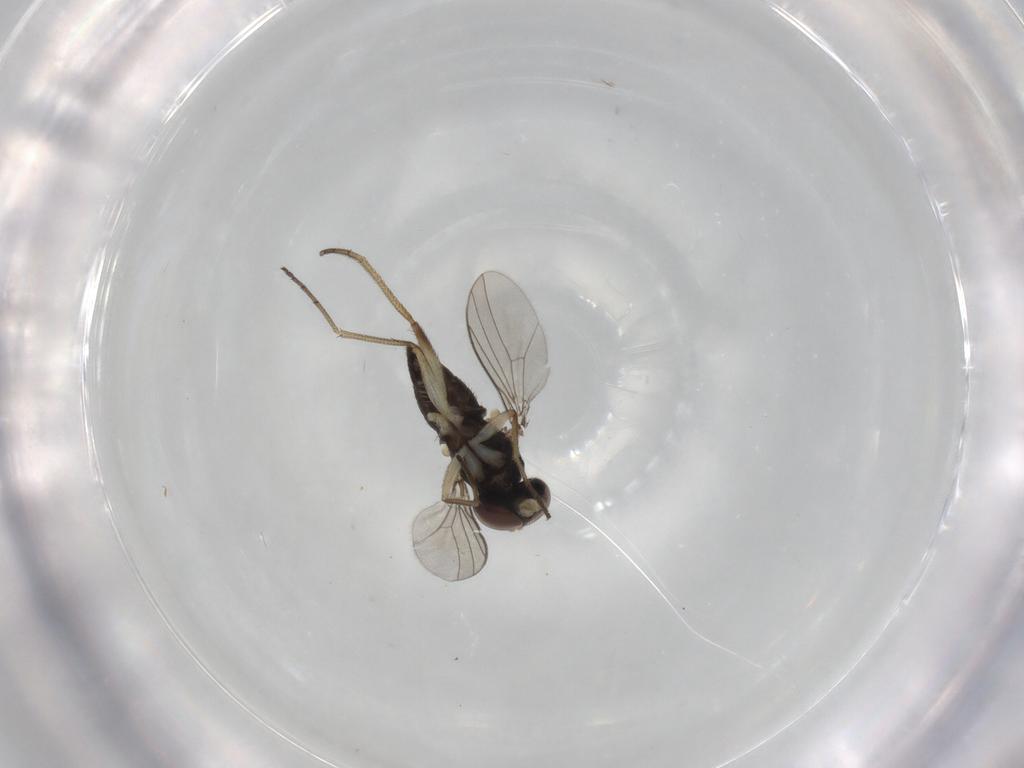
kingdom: Animalia
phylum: Arthropoda
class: Insecta
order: Diptera
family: Dolichopodidae
